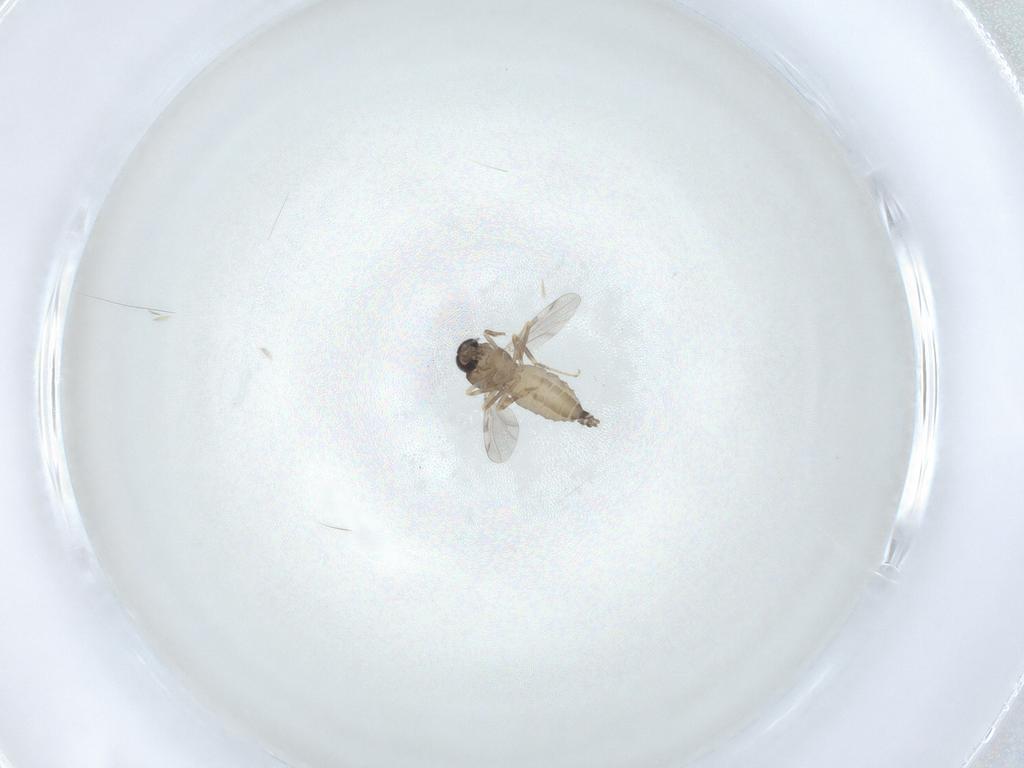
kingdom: Animalia
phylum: Arthropoda
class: Insecta
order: Diptera
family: Ceratopogonidae
